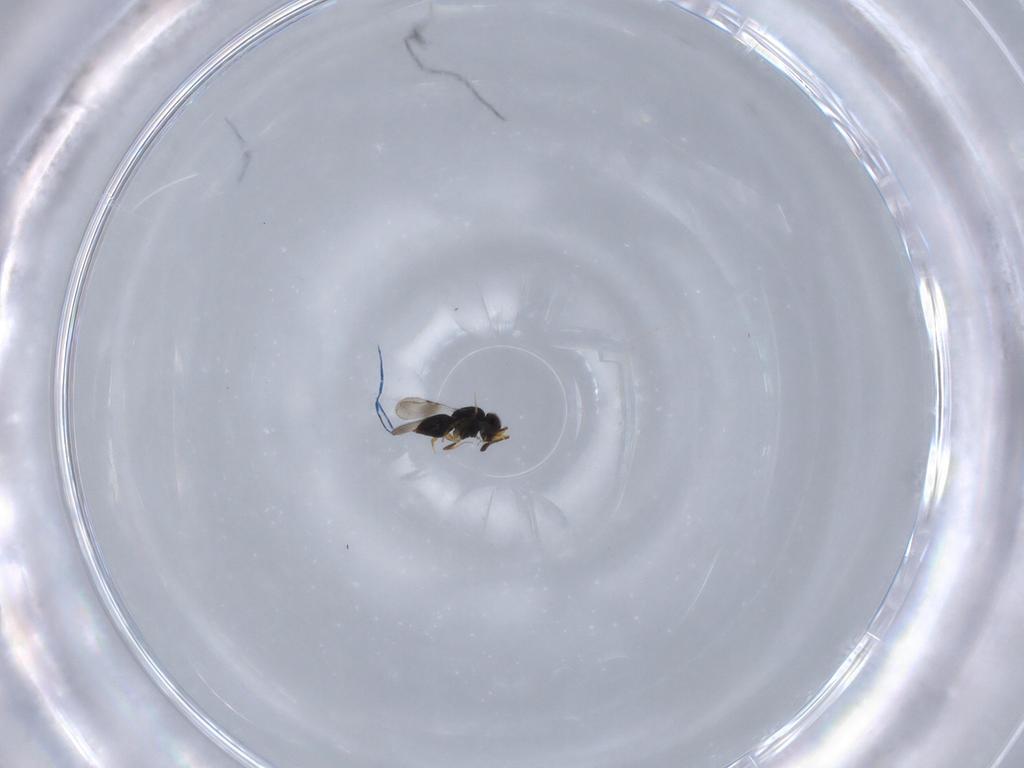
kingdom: Animalia
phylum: Arthropoda
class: Insecta
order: Hymenoptera
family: Ceraphronidae
